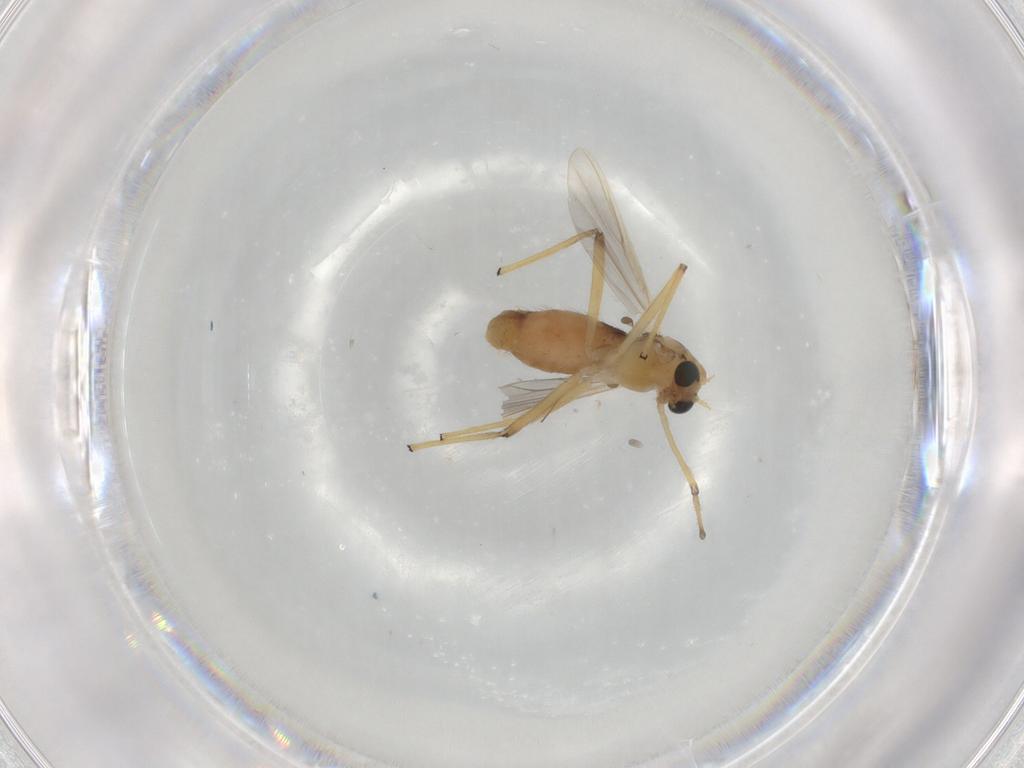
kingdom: Animalia
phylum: Arthropoda
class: Insecta
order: Diptera
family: Chironomidae
